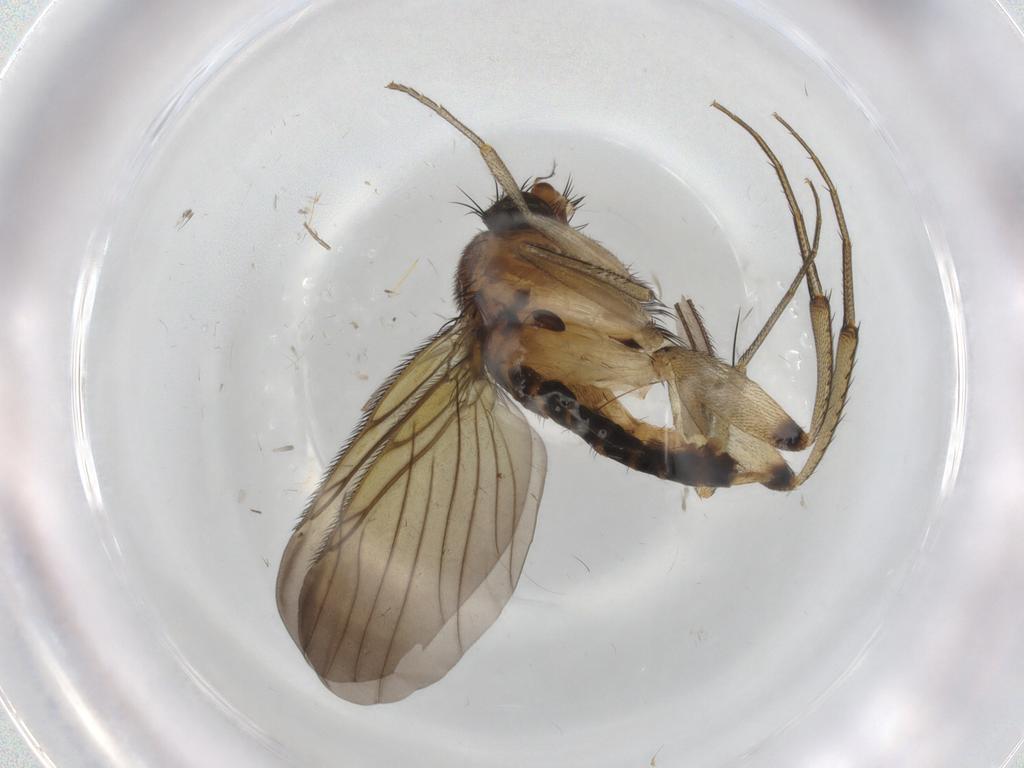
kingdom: Animalia
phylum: Arthropoda
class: Insecta
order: Diptera
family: Phoridae
